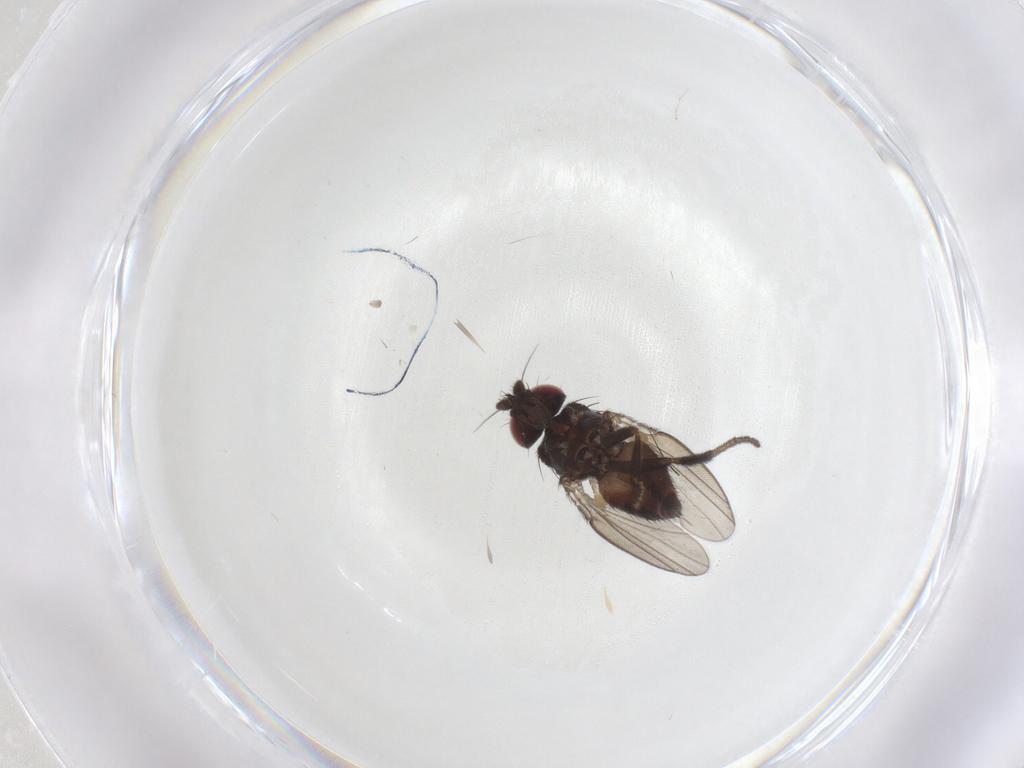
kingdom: Animalia
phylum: Arthropoda
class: Insecta
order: Diptera
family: Milichiidae
